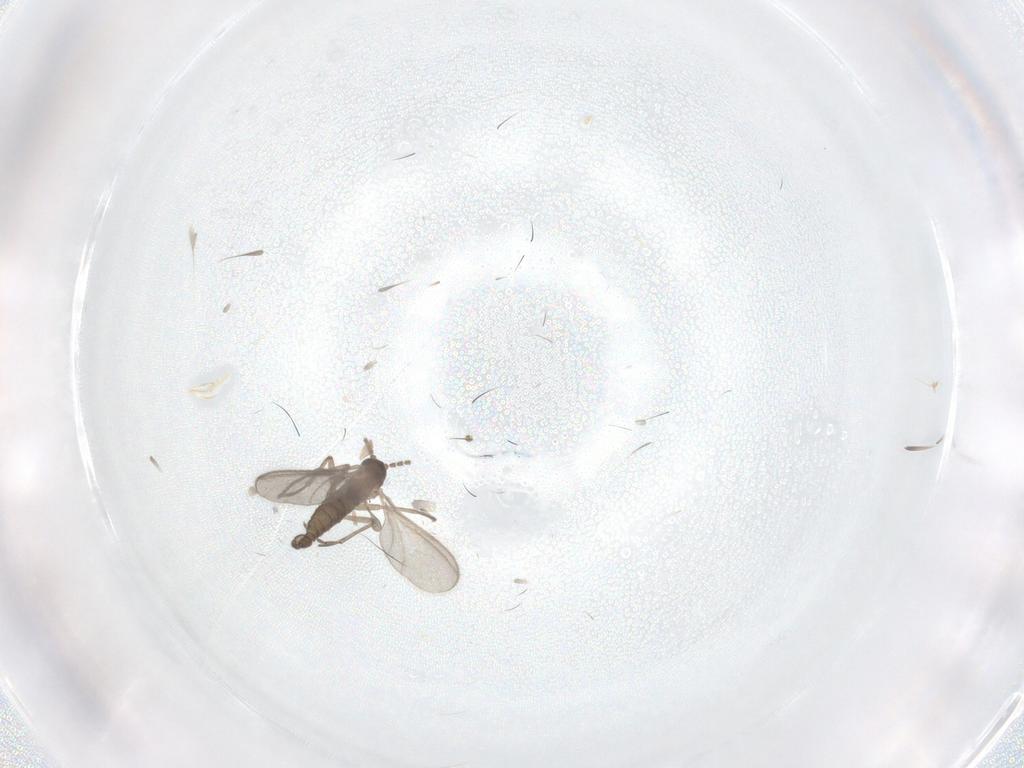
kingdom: Animalia
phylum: Arthropoda
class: Insecta
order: Diptera
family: Sciaridae
